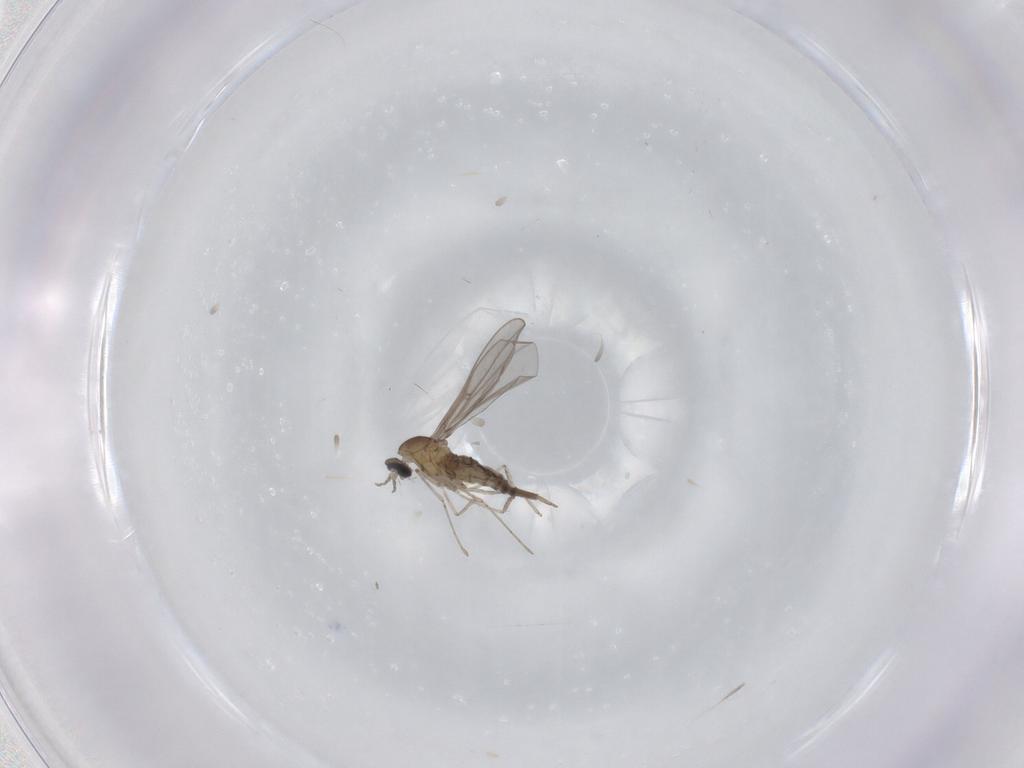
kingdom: Animalia
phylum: Arthropoda
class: Insecta
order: Diptera
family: Cecidomyiidae
